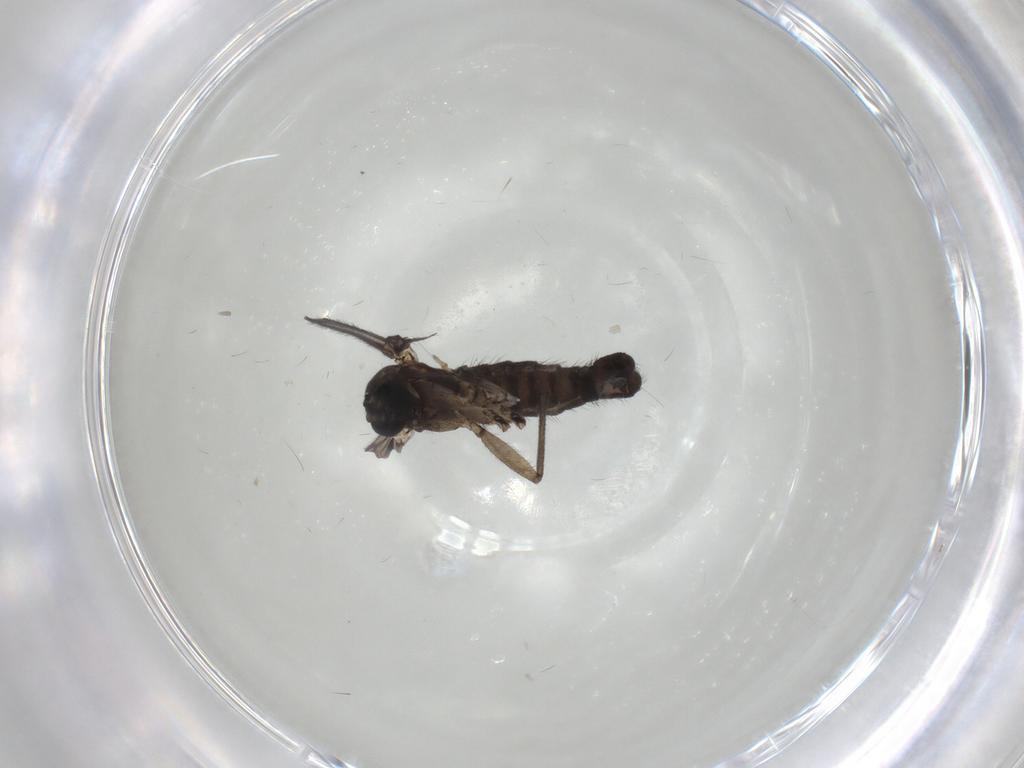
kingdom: Animalia
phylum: Arthropoda
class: Insecta
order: Diptera
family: Sciaridae
